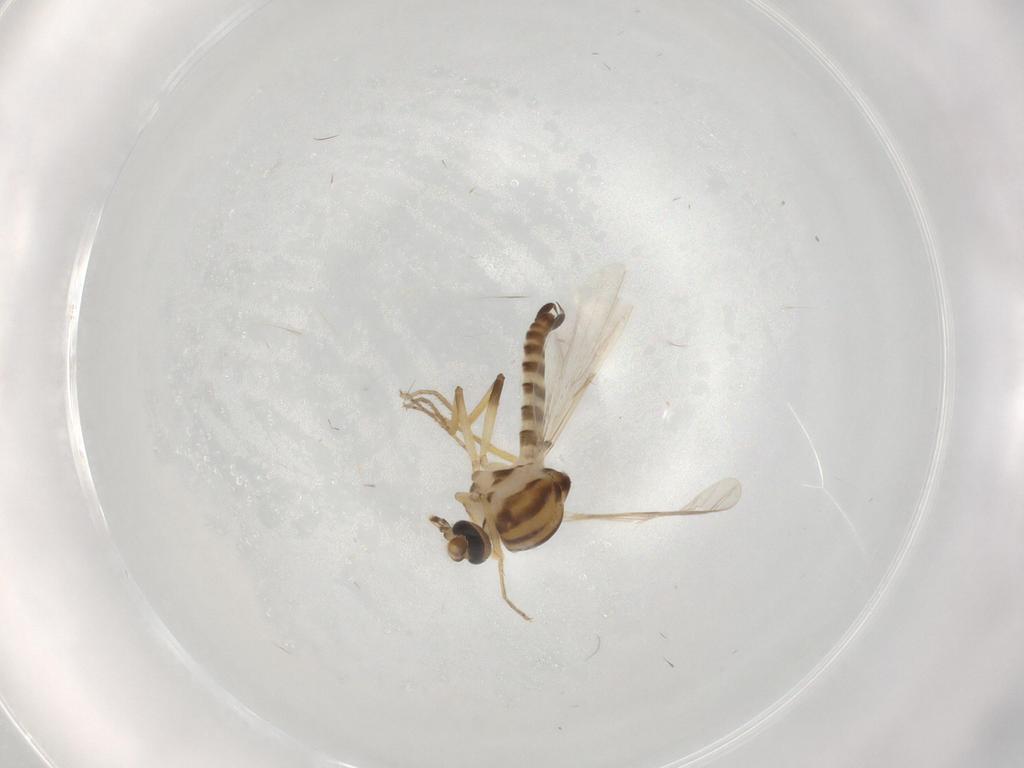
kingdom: Animalia
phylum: Arthropoda
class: Insecta
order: Diptera
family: Ceratopogonidae
